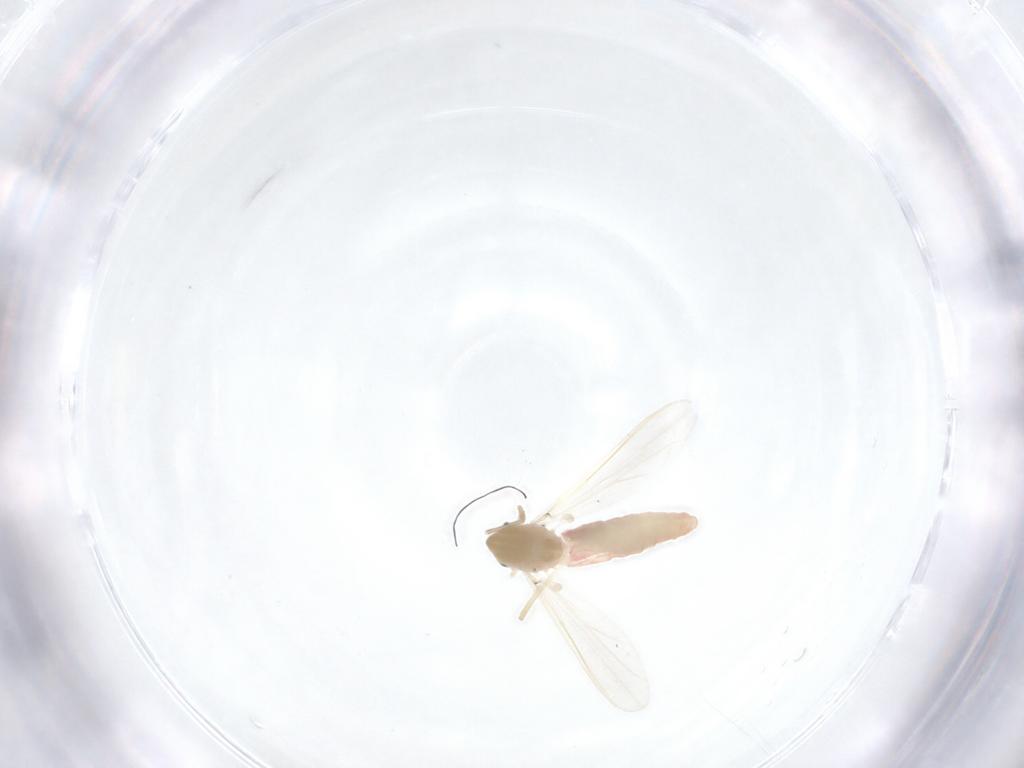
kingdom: Animalia
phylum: Arthropoda
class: Insecta
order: Diptera
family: Chironomidae
